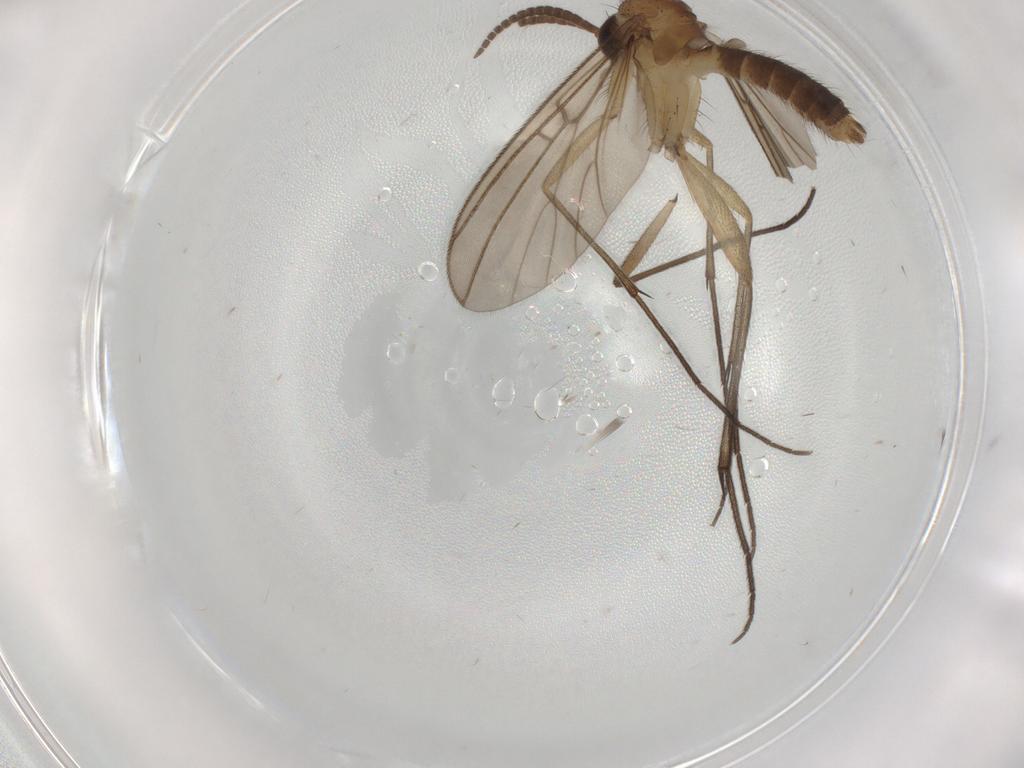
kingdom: Animalia
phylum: Arthropoda
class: Insecta
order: Diptera
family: Mycetophilidae
